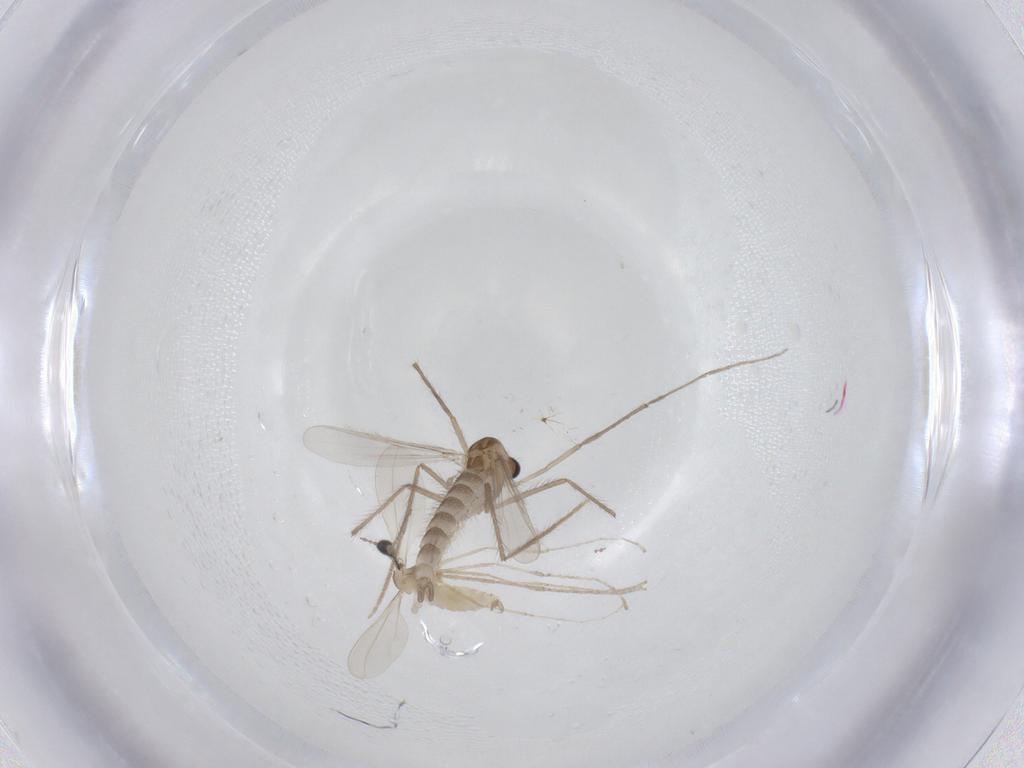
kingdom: Animalia
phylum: Arthropoda
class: Insecta
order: Diptera
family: Chironomidae
